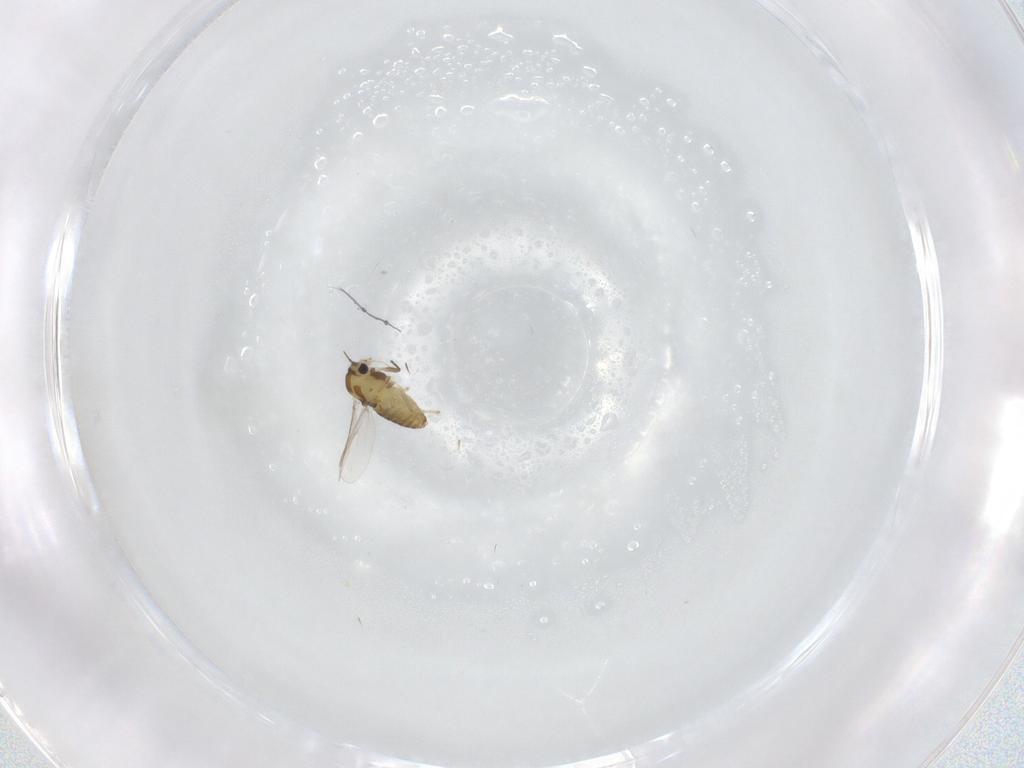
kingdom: Animalia
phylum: Arthropoda
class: Insecta
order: Diptera
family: Chironomidae
